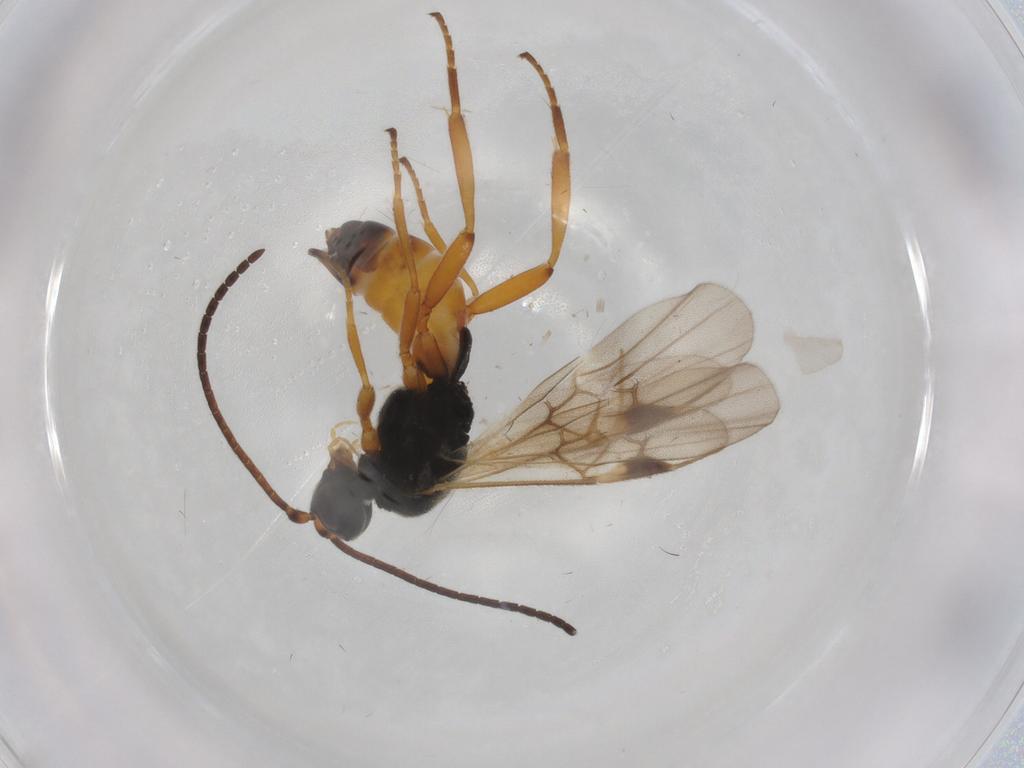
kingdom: Animalia
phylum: Arthropoda
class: Insecta
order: Hymenoptera
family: Braconidae
